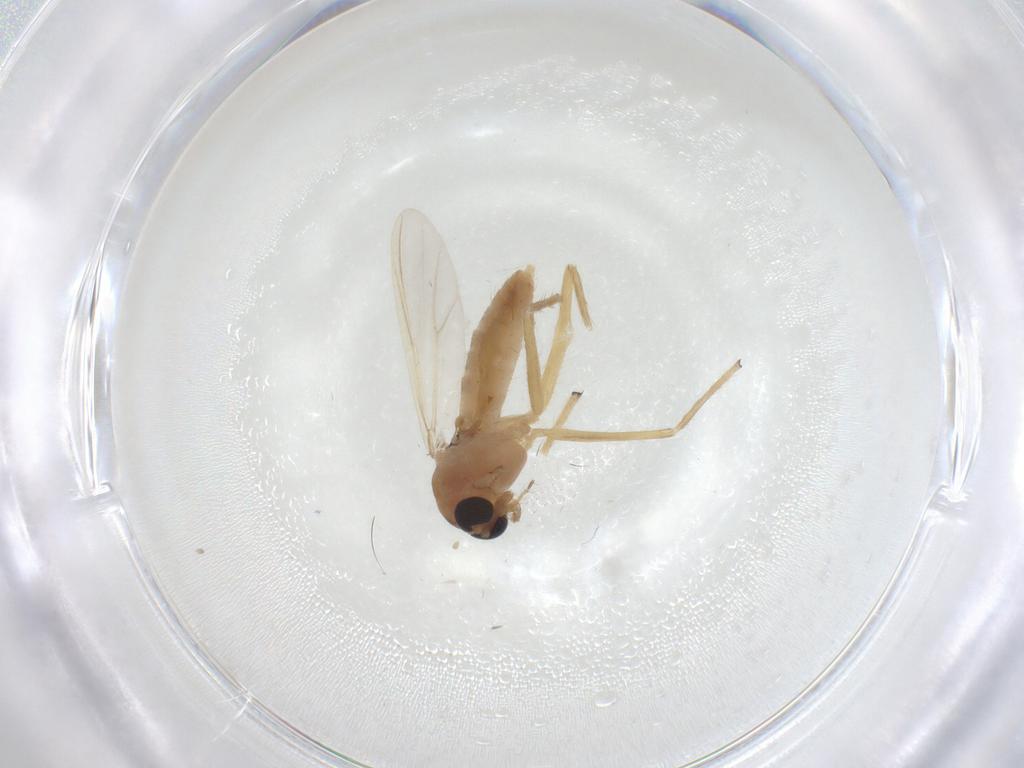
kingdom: Animalia
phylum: Arthropoda
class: Insecta
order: Diptera
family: Chironomidae
